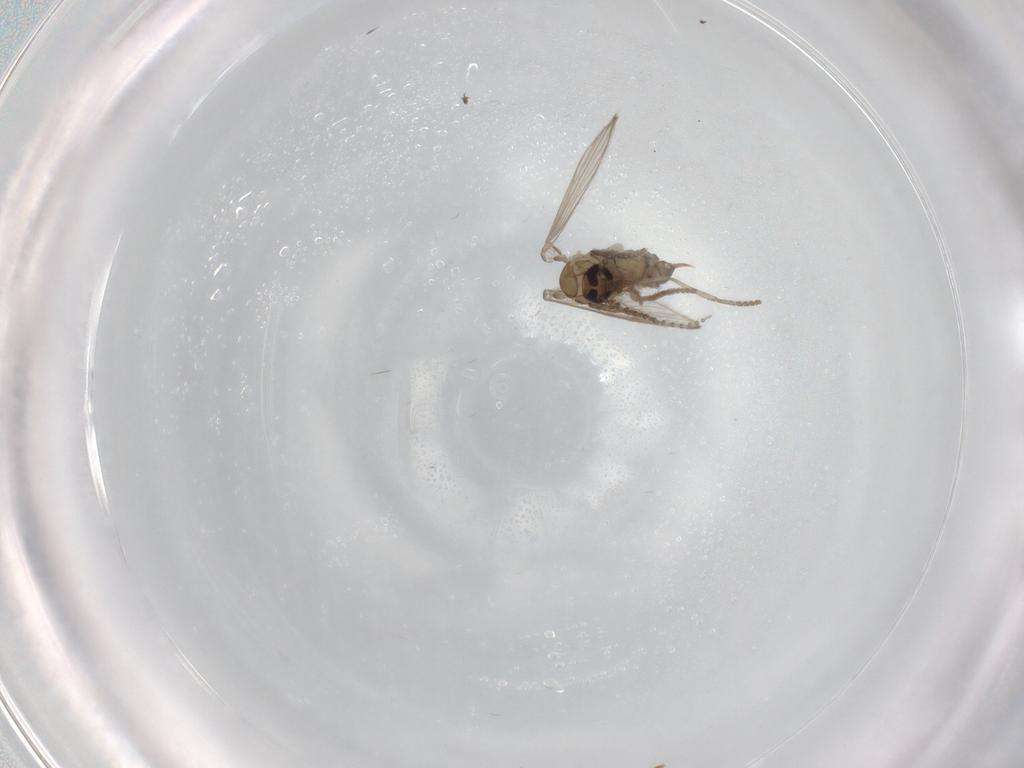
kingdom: Animalia
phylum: Arthropoda
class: Insecta
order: Diptera
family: Psychodidae
